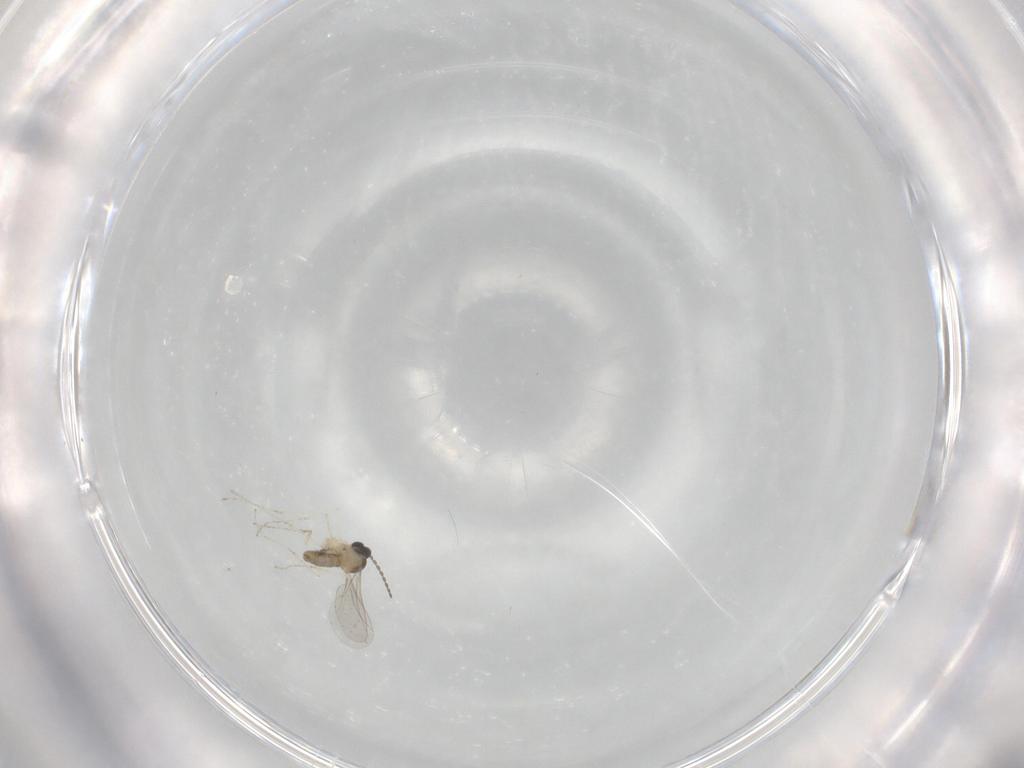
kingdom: Animalia
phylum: Arthropoda
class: Insecta
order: Diptera
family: Cecidomyiidae
